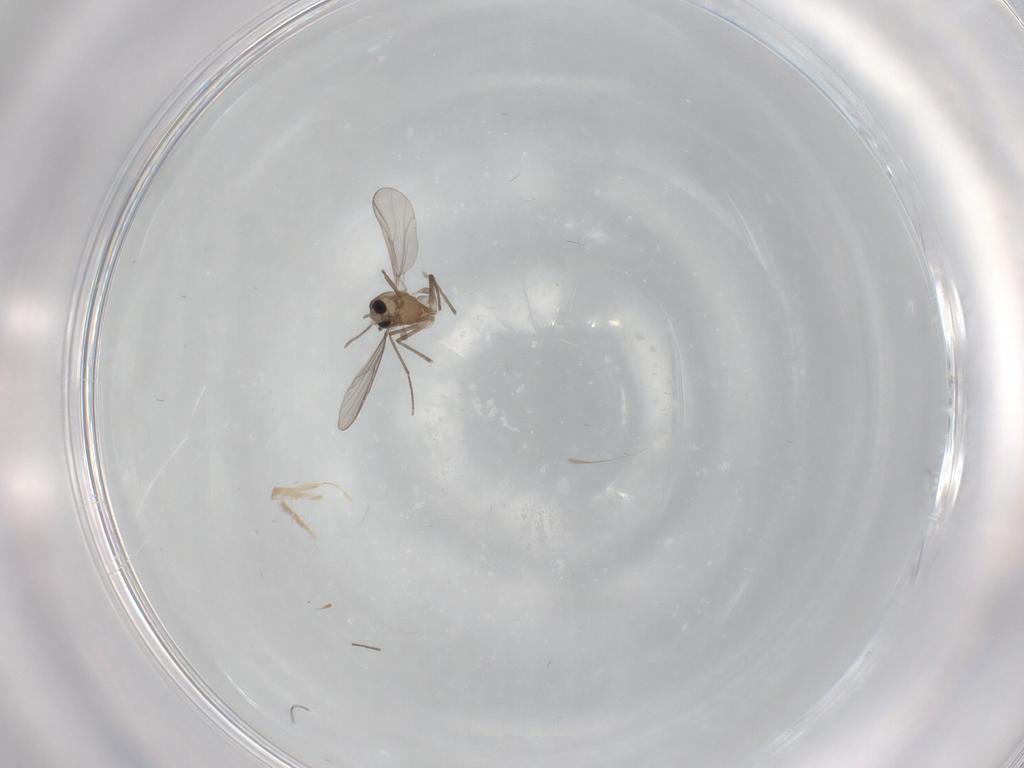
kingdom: Animalia
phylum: Arthropoda
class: Insecta
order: Diptera
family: Chironomidae
